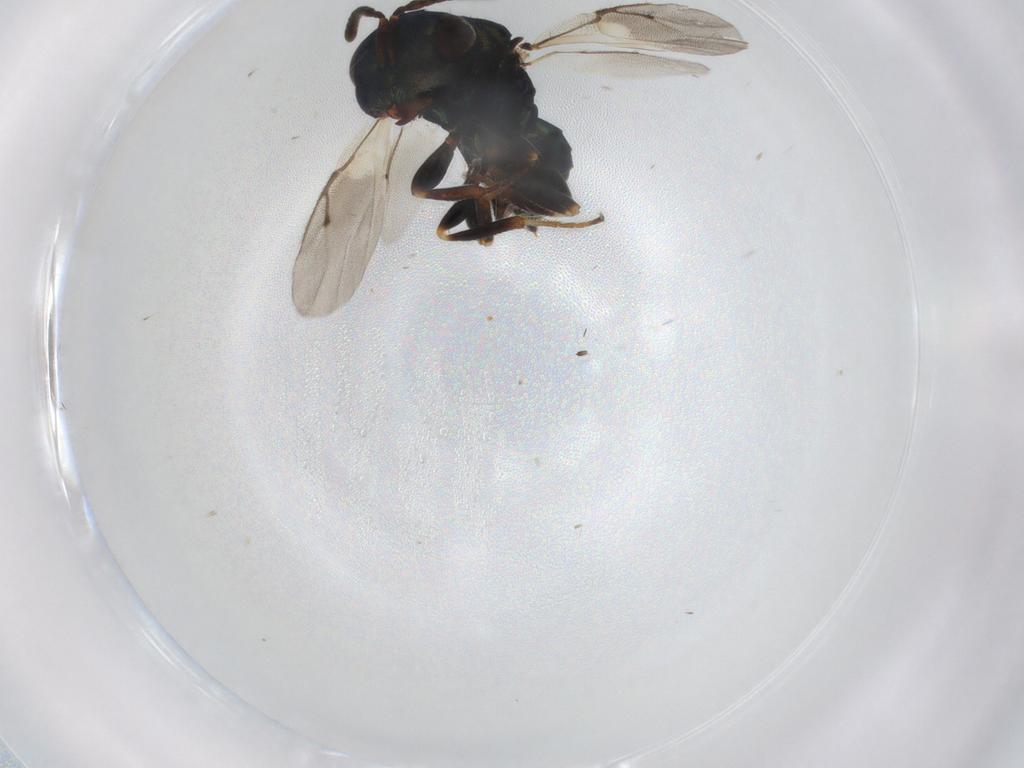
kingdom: Animalia
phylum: Arthropoda
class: Insecta
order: Hymenoptera
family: Pteromalidae
